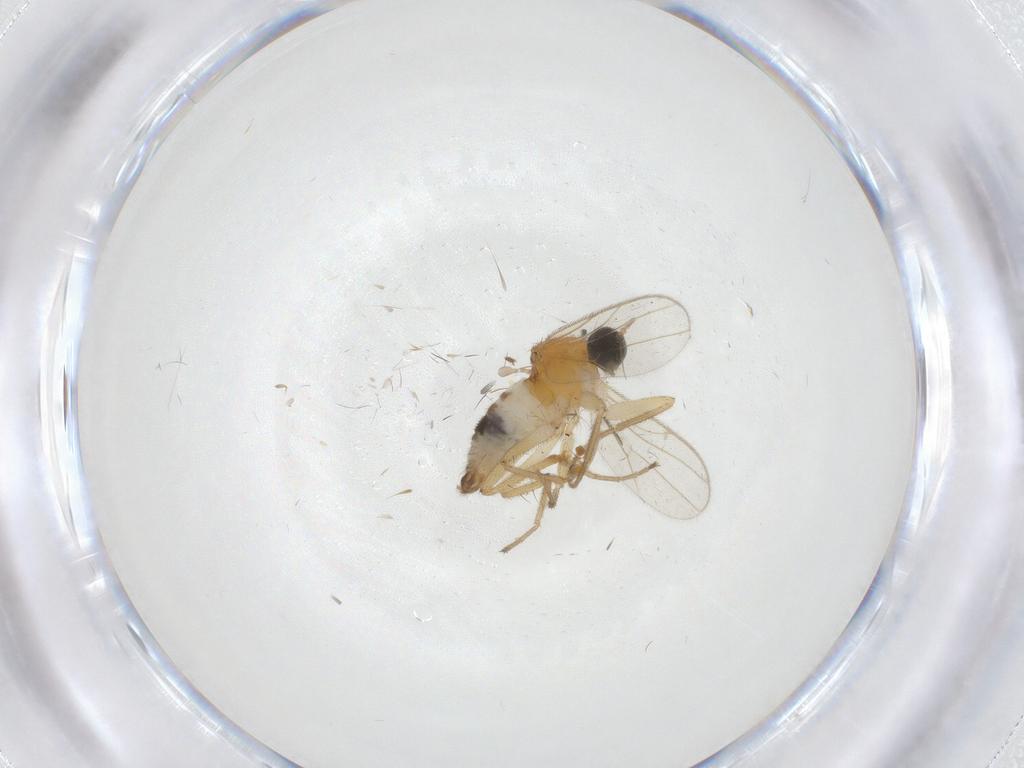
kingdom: Animalia
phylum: Arthropoda
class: Insecta
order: Diptera
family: Hybotidae
